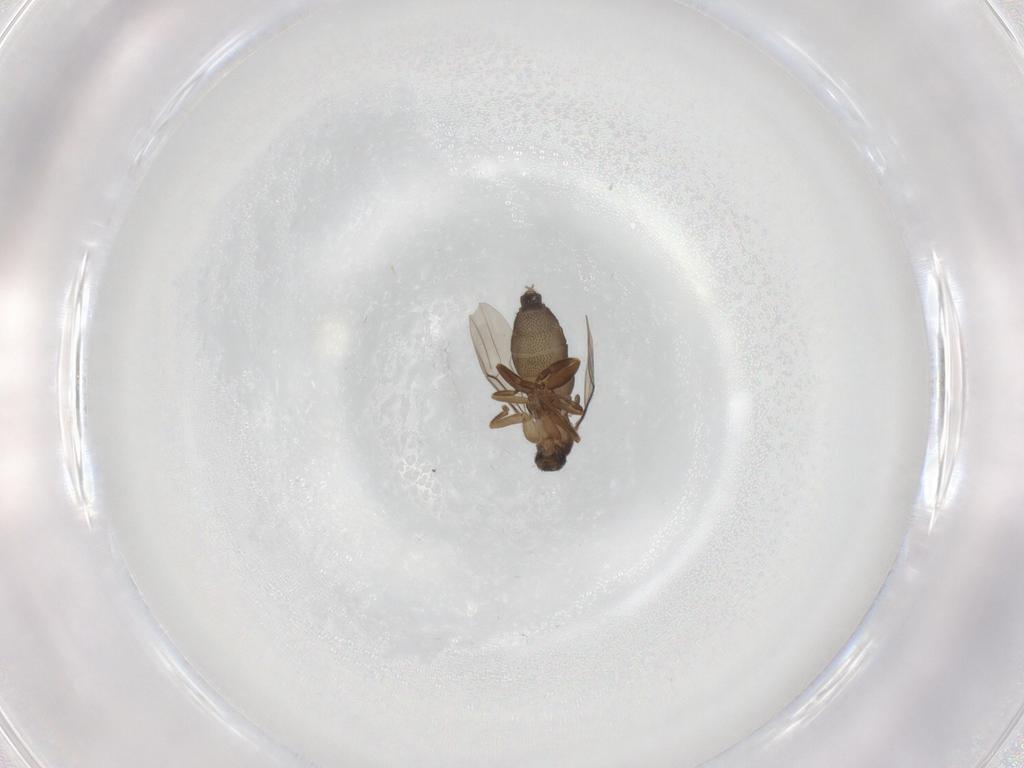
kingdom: Animalia
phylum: Arthropoda
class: Insecta
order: Diptera
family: Phoridae
